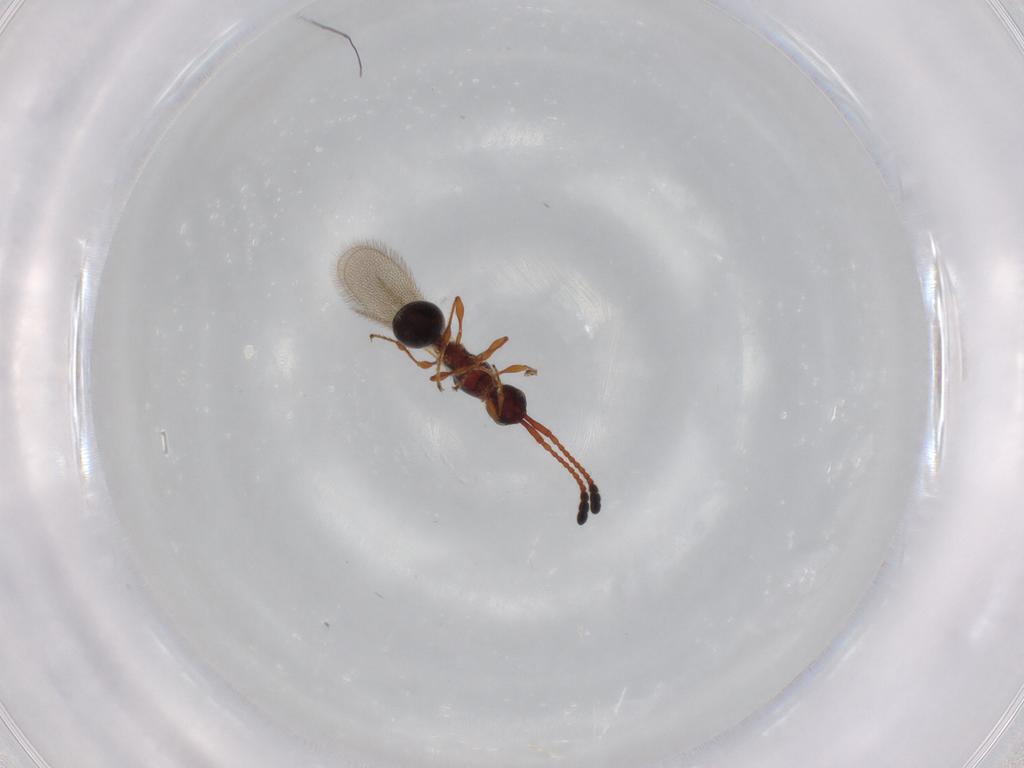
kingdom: Animalia
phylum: Arthropoda
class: Insecta
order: Hymenoptera
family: Diapriidae
